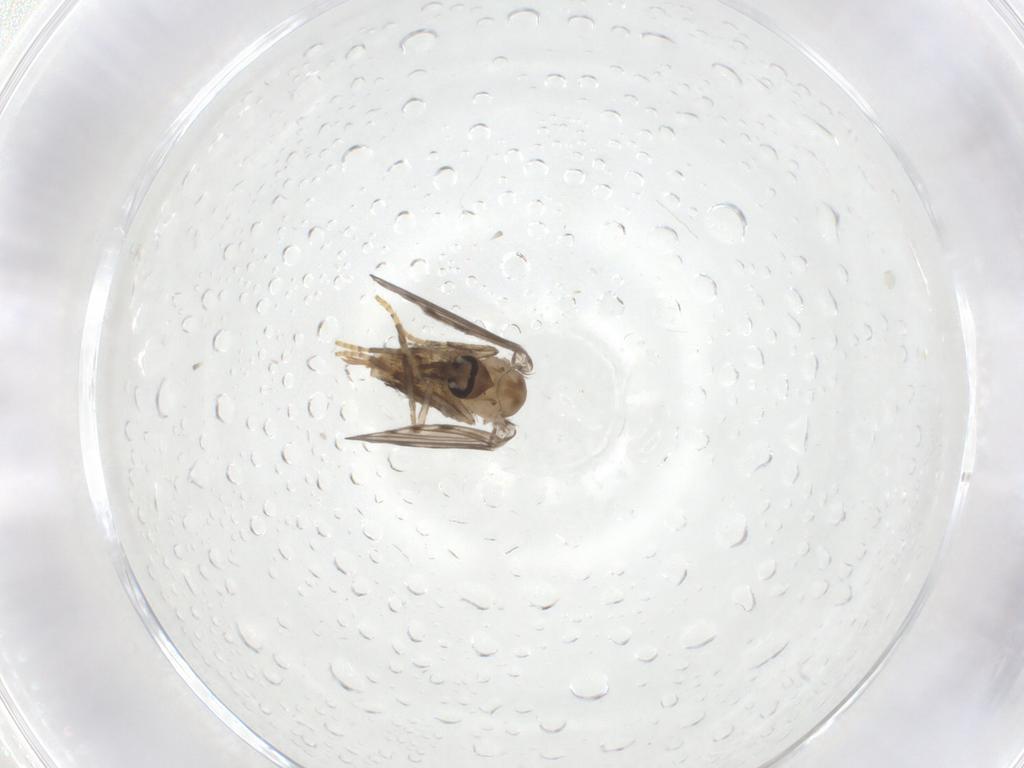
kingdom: Animalia
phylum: Arthropoda
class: Insecta
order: Diptera
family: Psychodidae
